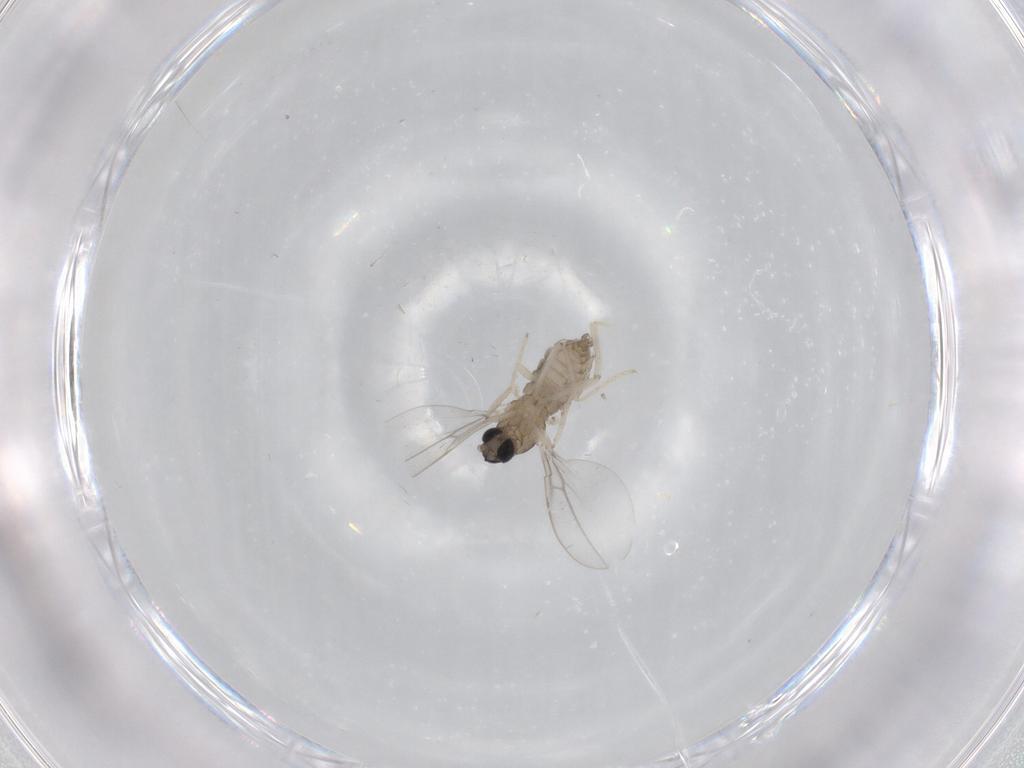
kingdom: Animalia
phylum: Arthropoda
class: Insecta
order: Diptera
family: Cecidomyiidae
